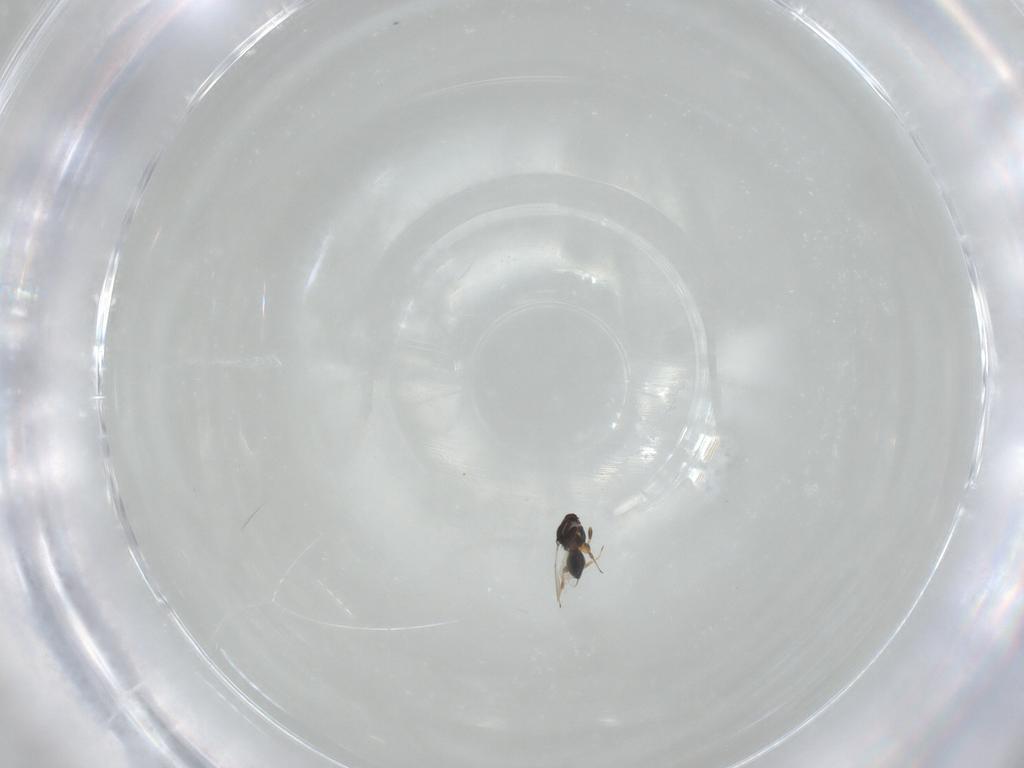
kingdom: Animalia
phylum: Arthropoda
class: Insecta
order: Hymenoptera
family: Platygastridae
